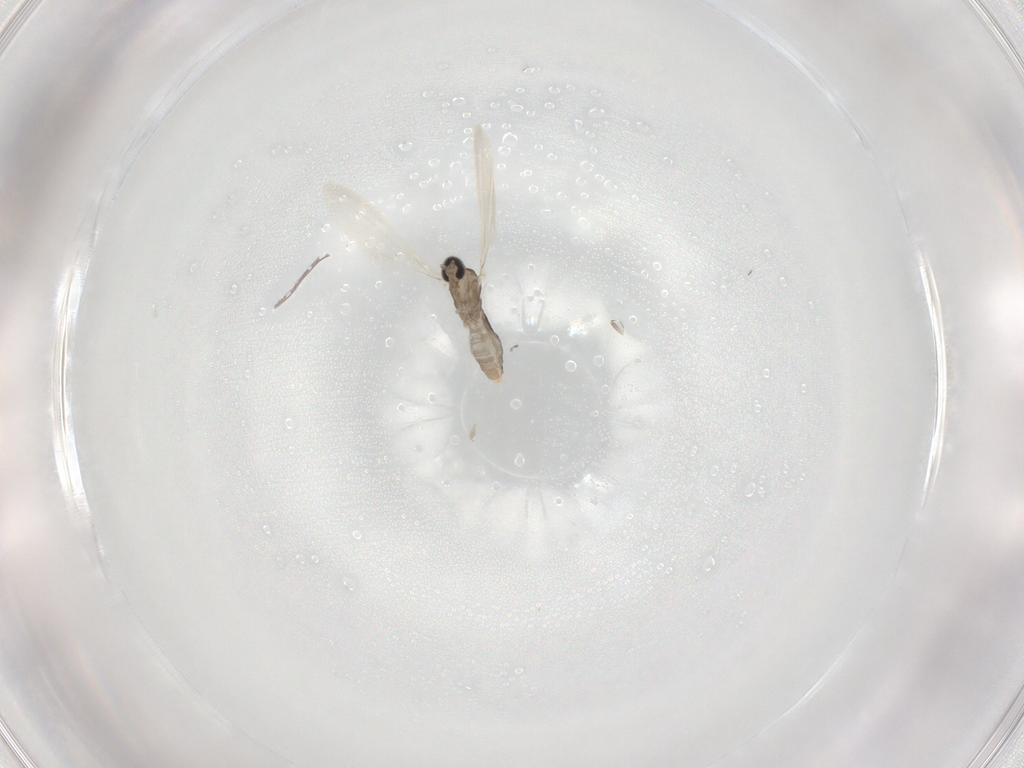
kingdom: Animalia
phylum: Arthropoda
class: Insecta
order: Diptera
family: Cecidomyiidae
